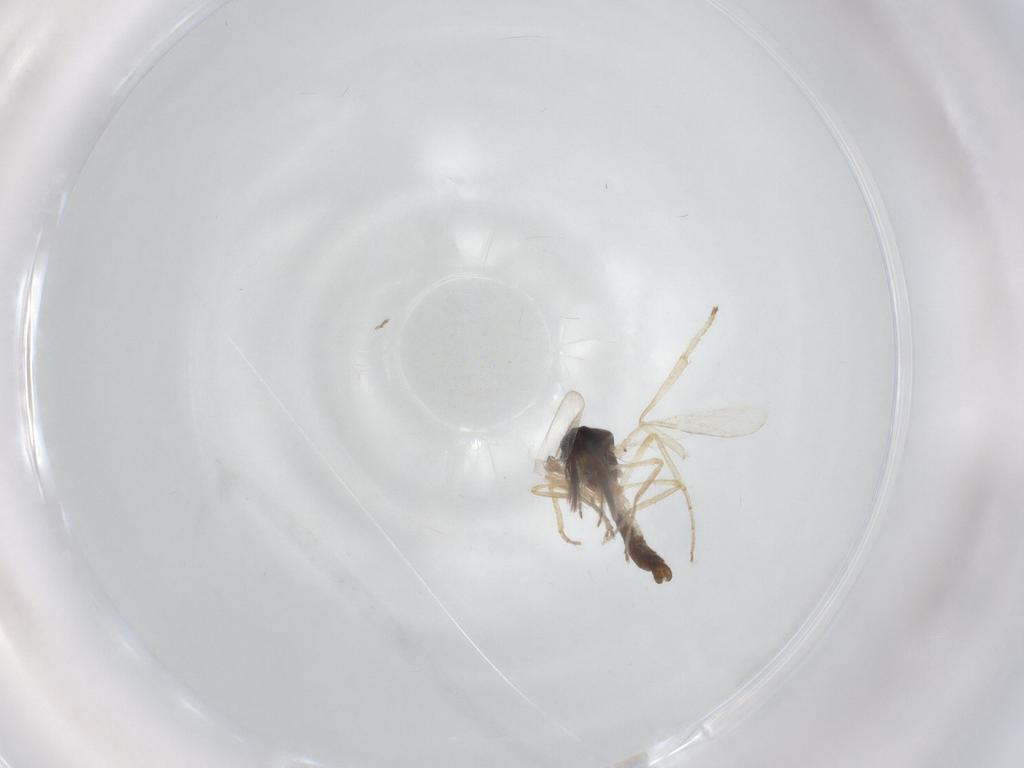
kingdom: Animalia
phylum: Arthropoda
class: Insecta
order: Diptera
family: Ceratopogonidae
